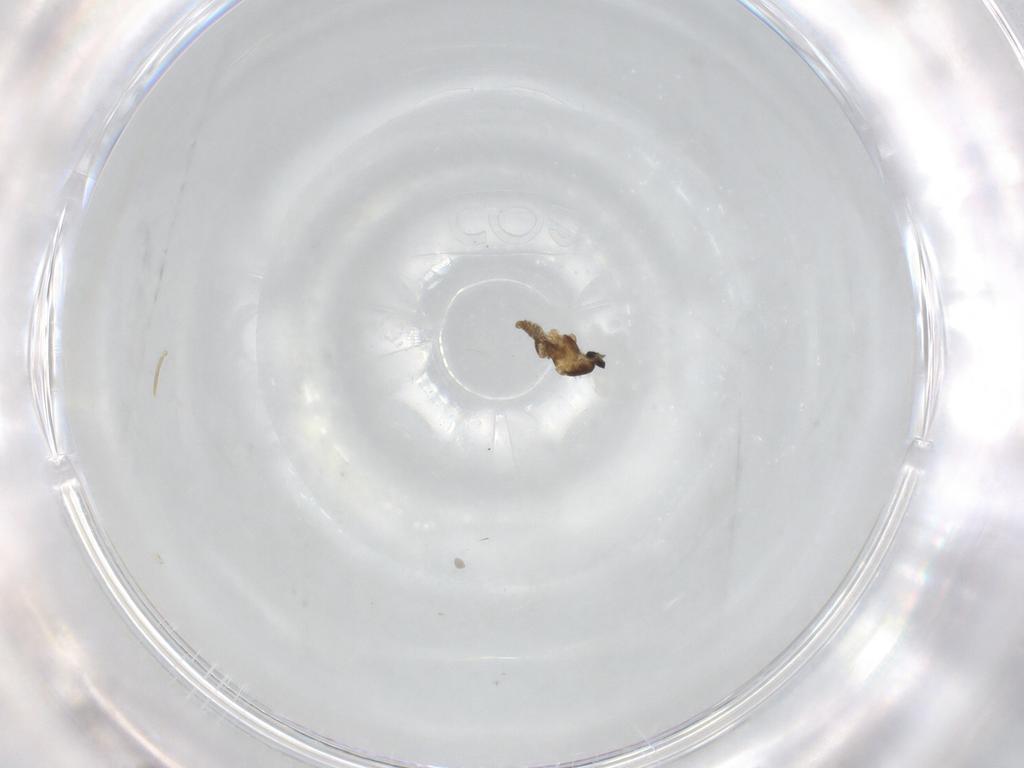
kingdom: Animalia
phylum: Arthropoda
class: Insecta
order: Diptera
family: Cecidomyiidae
